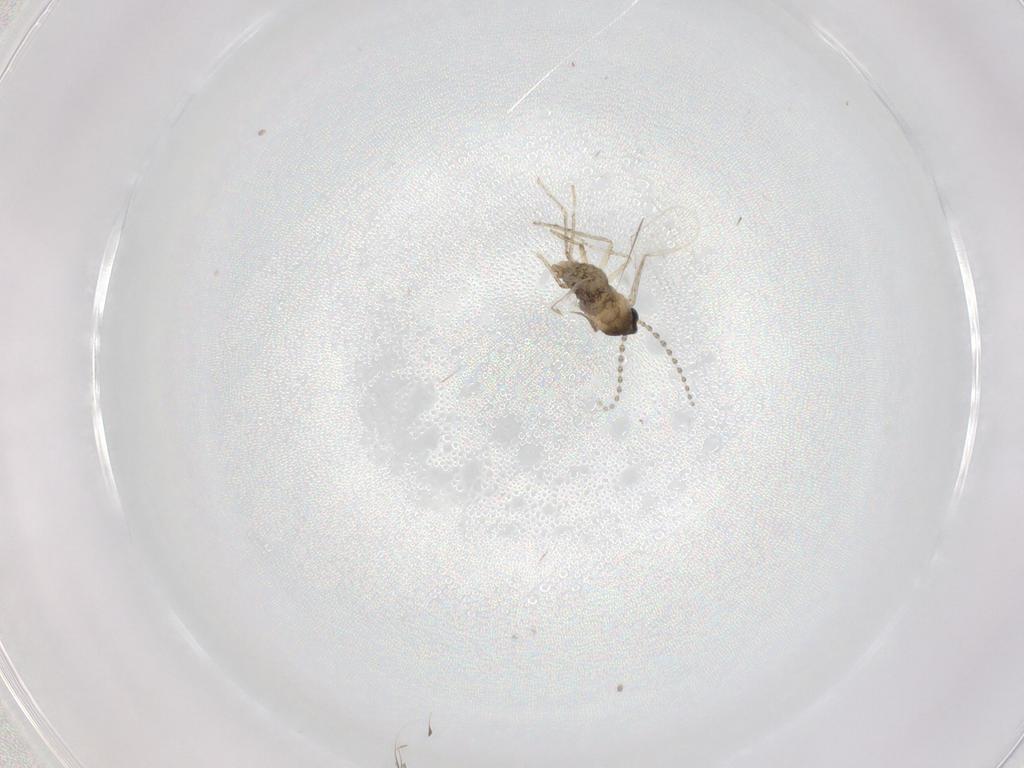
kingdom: Animalia
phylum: Arthropoda
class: Insecta
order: Diptera
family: Cecidomyiidae
